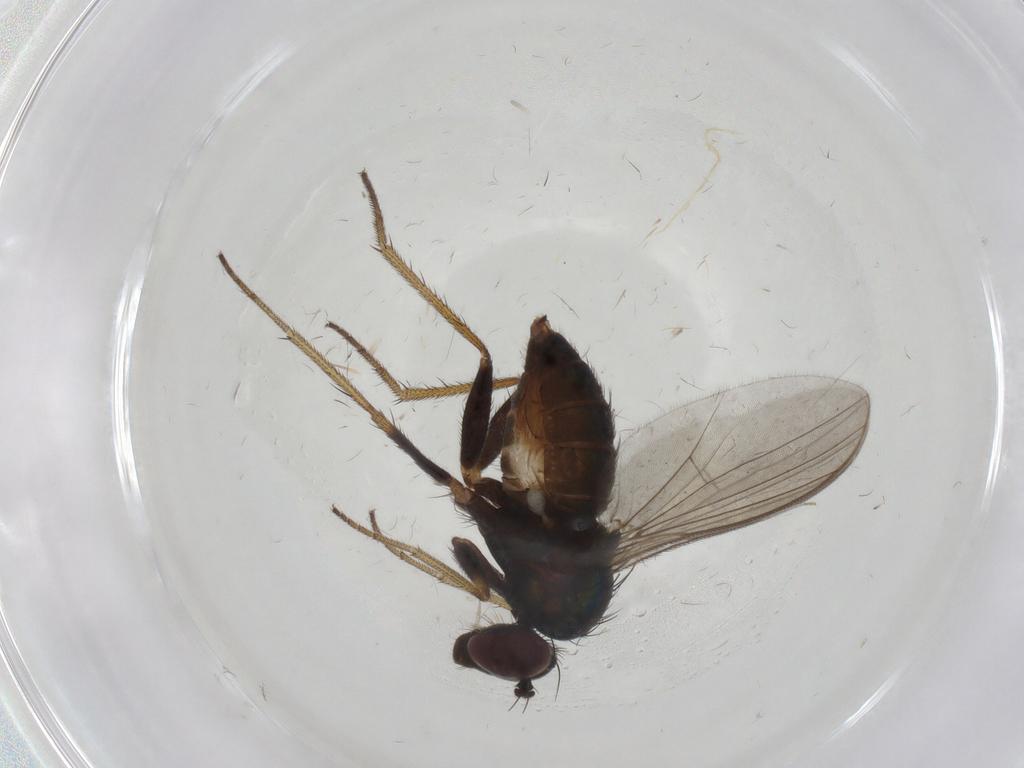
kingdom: Animalia
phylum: Arthropoda
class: Insecta
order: Diptera
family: Muscidae
